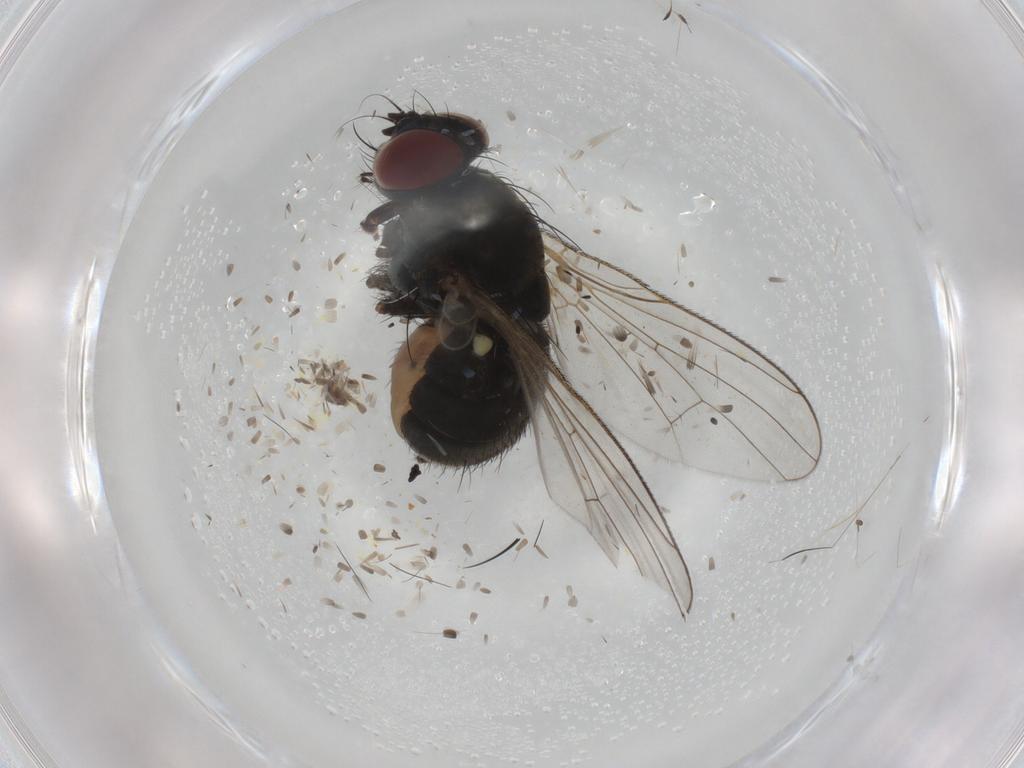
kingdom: Animalia
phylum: Arthropoda
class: Insecta
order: Diptera
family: Muscidae
